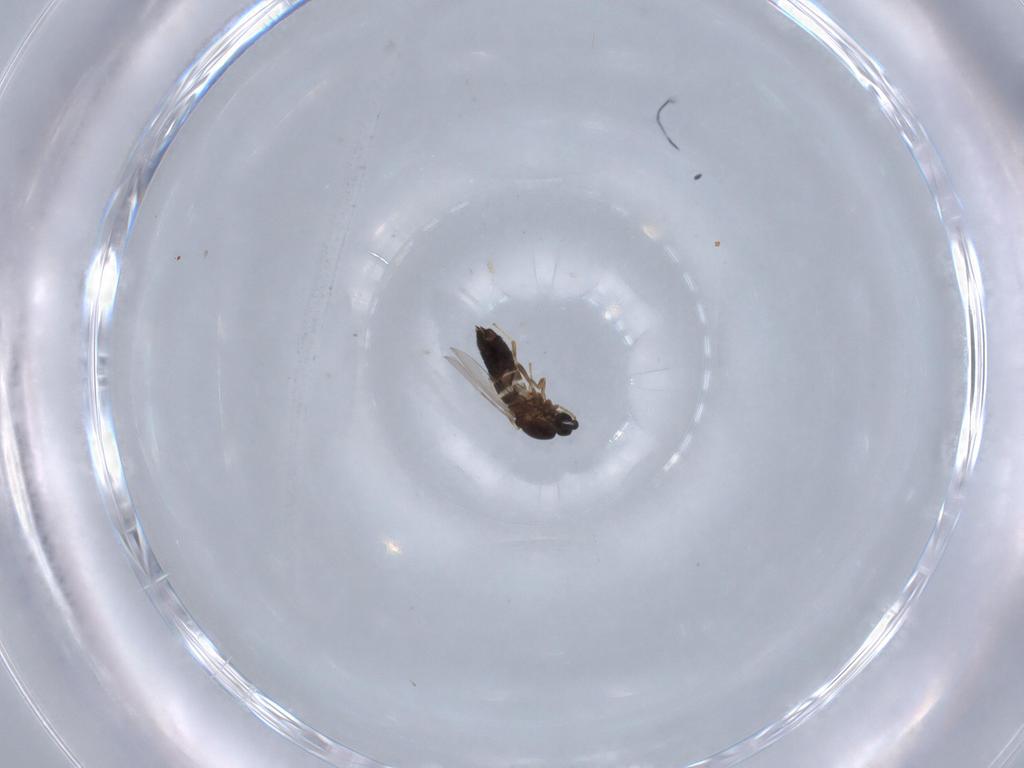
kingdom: Animalia
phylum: Arthropoda
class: Insecta
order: Diptera
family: Scatopsidae
